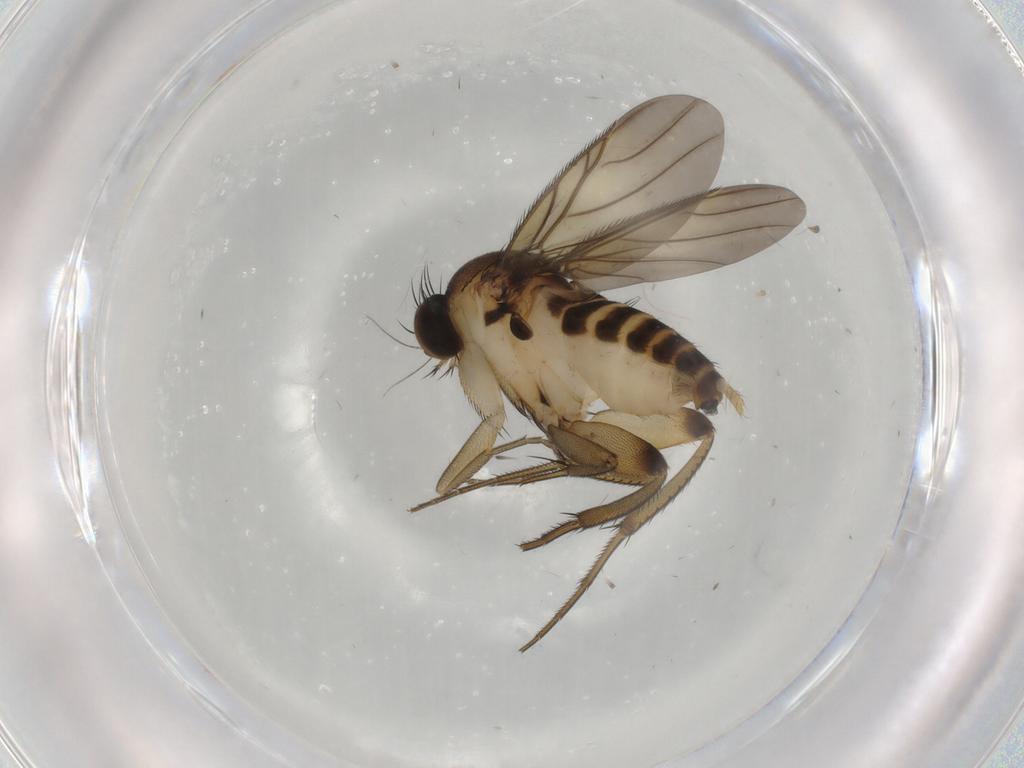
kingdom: Animalia
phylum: Arthropoda
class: Insecta
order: Diptera
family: Phoridae
